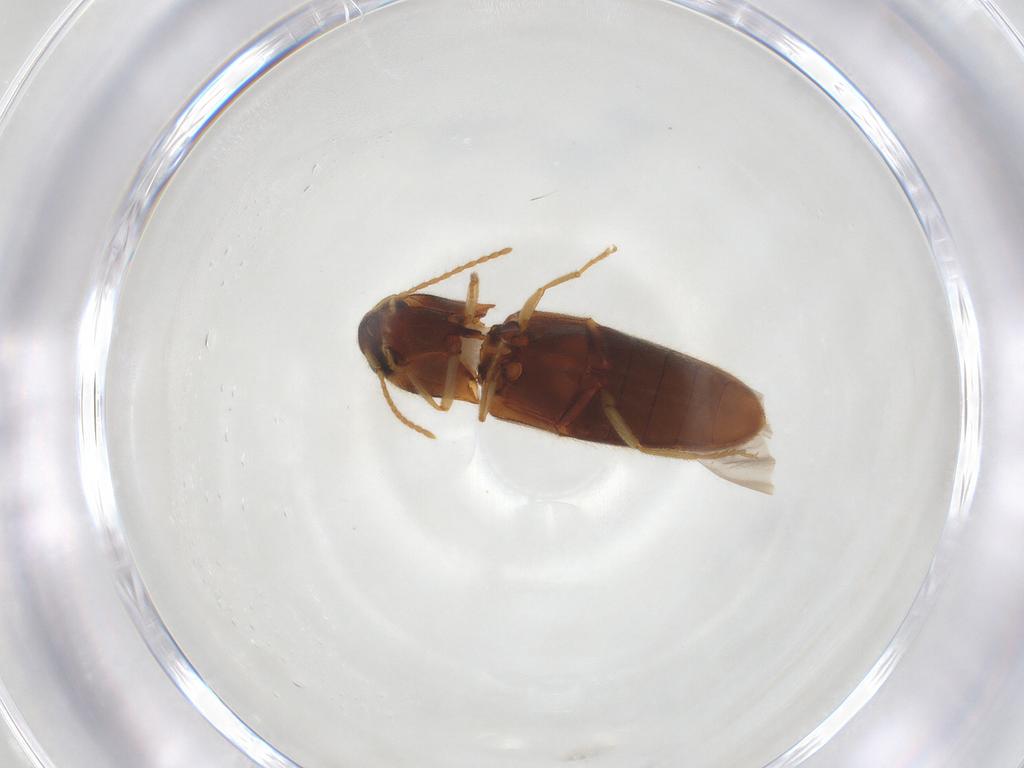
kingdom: Animalia
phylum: Arthropoda
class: Insecta
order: Coleoptera
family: Elateridae
